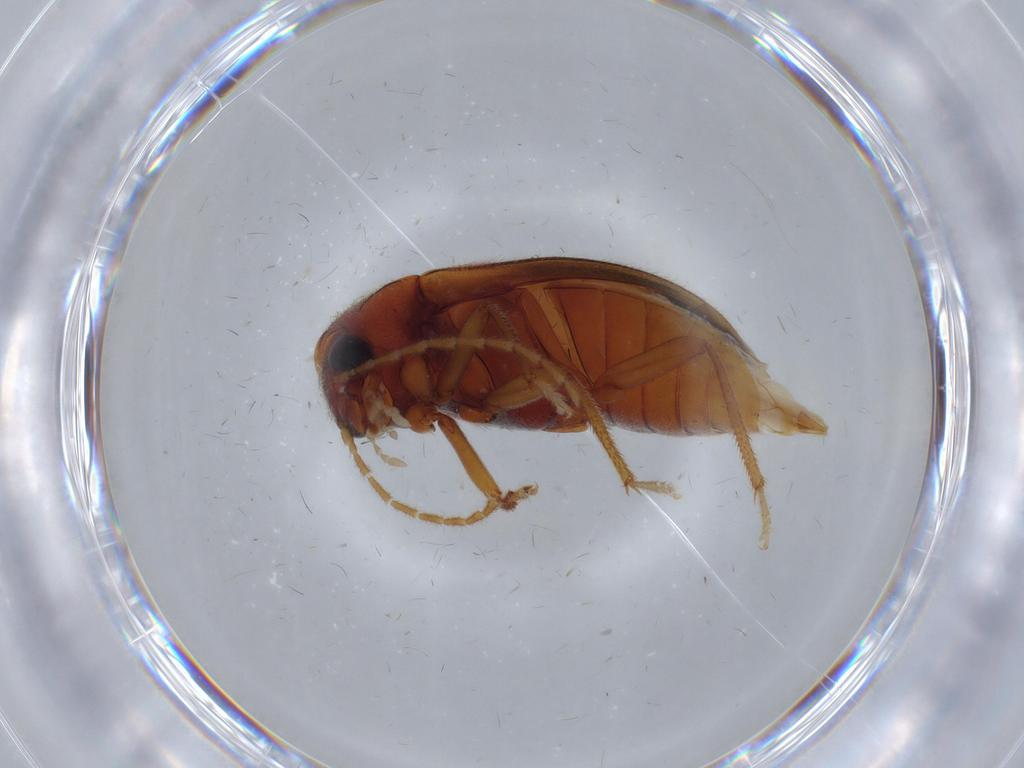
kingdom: Animalia
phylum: Arthropoda
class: Insecta
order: Coleoptera
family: Ptilodactylidae
